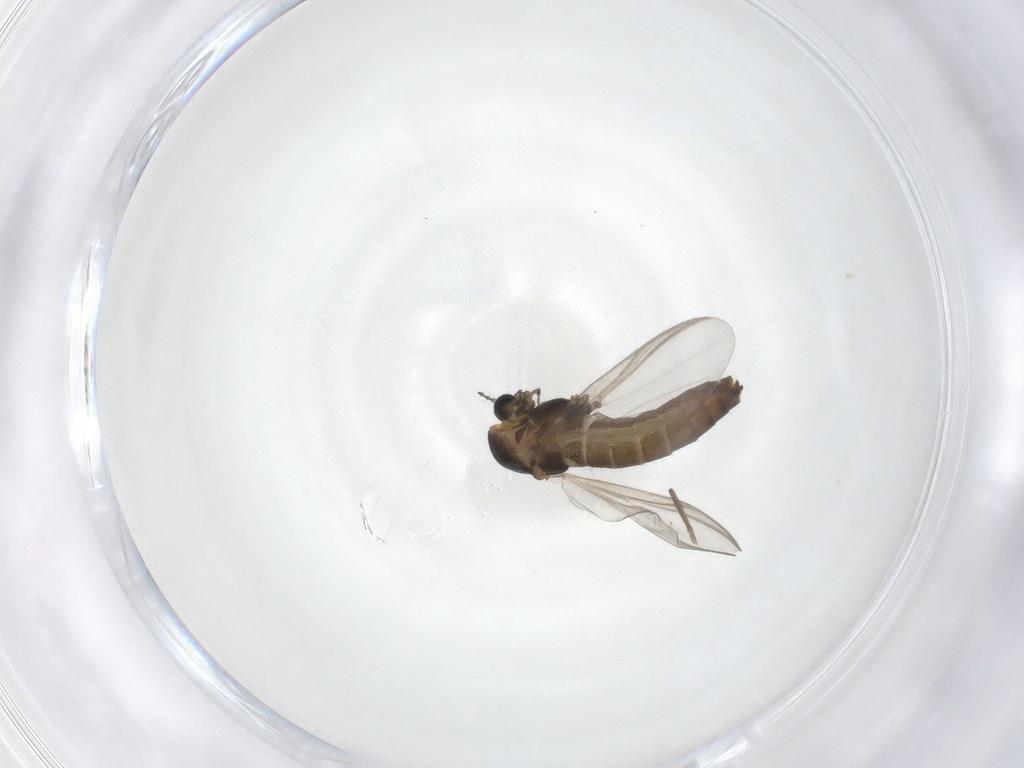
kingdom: Animalia
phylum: Arthropoda
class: Insecta
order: Diptera
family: Chironomidae
